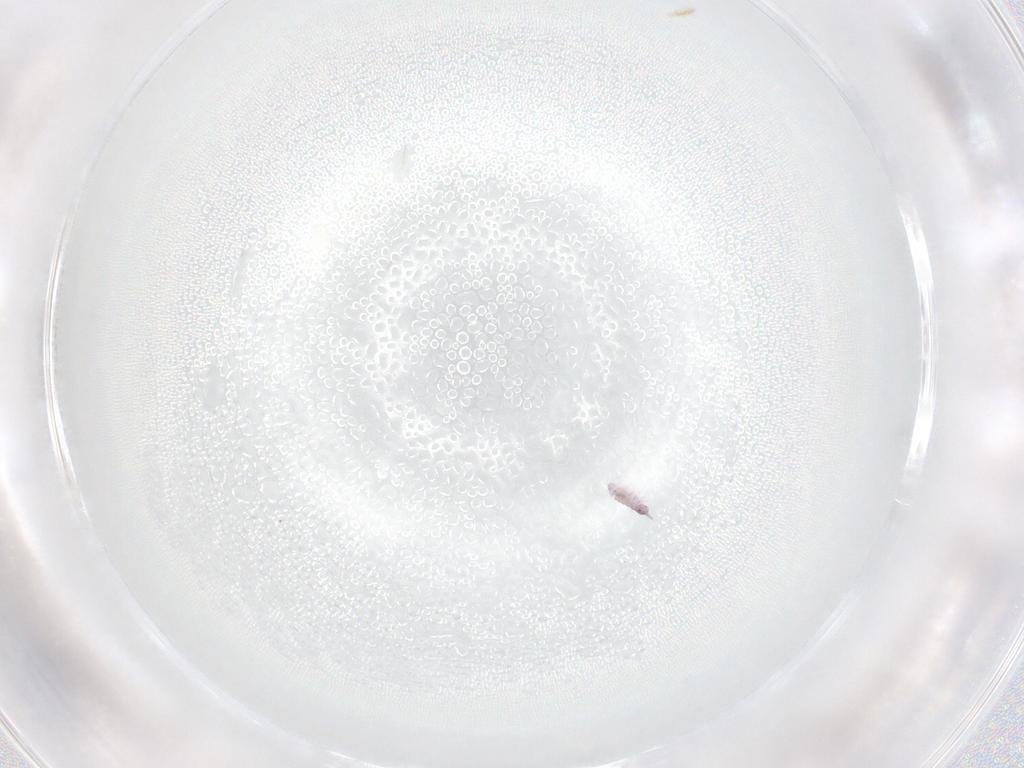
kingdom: Animalia
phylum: Arthropoda
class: Collembola
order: Poduromorpha
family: Neanuridae
